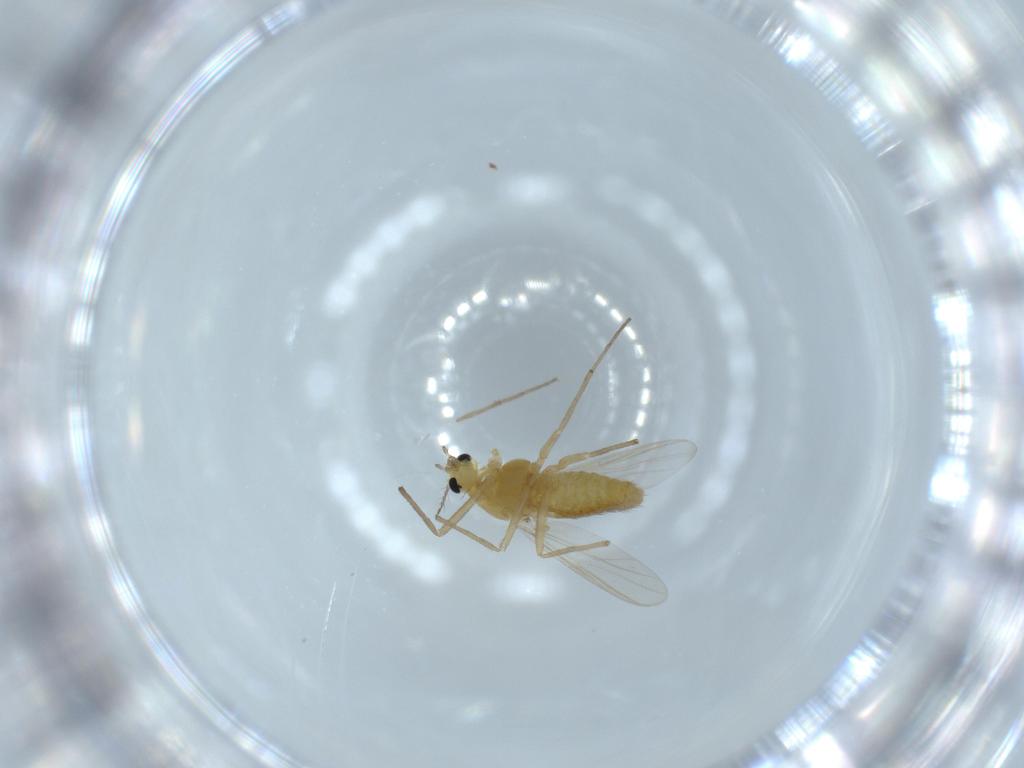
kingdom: Animalia
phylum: Arthropoda
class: Insecta
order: Diptera
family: Chironomidae
